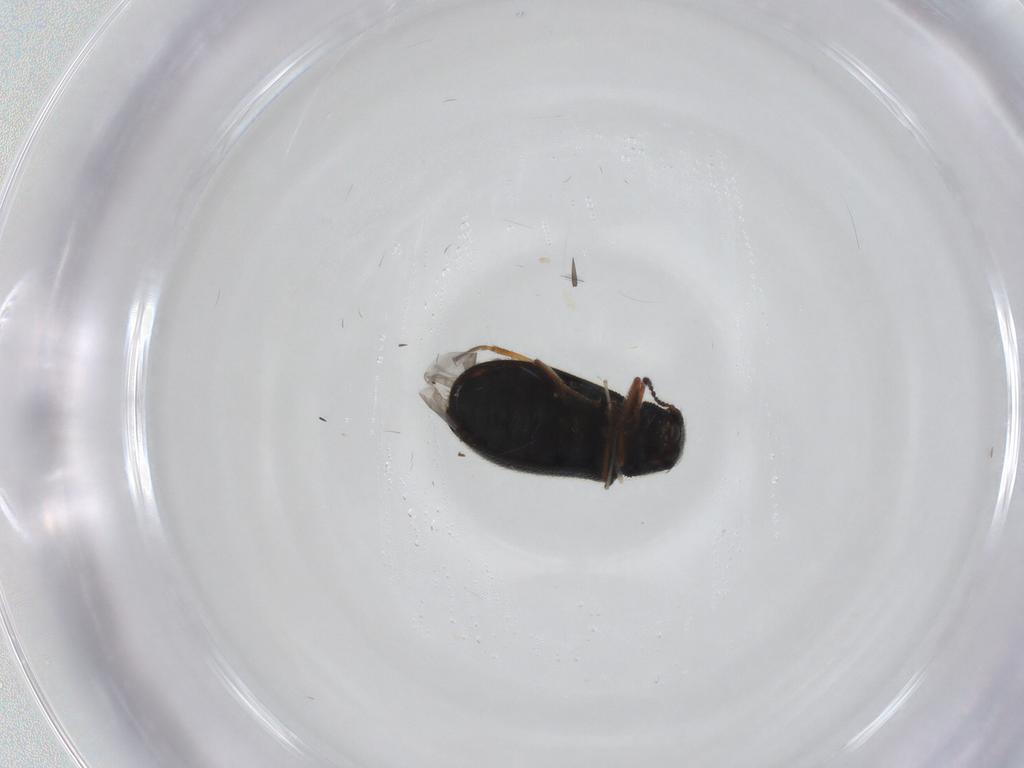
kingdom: Animalia
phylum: Arthropoda
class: Insecta
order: Coleoptera
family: Melyridae
